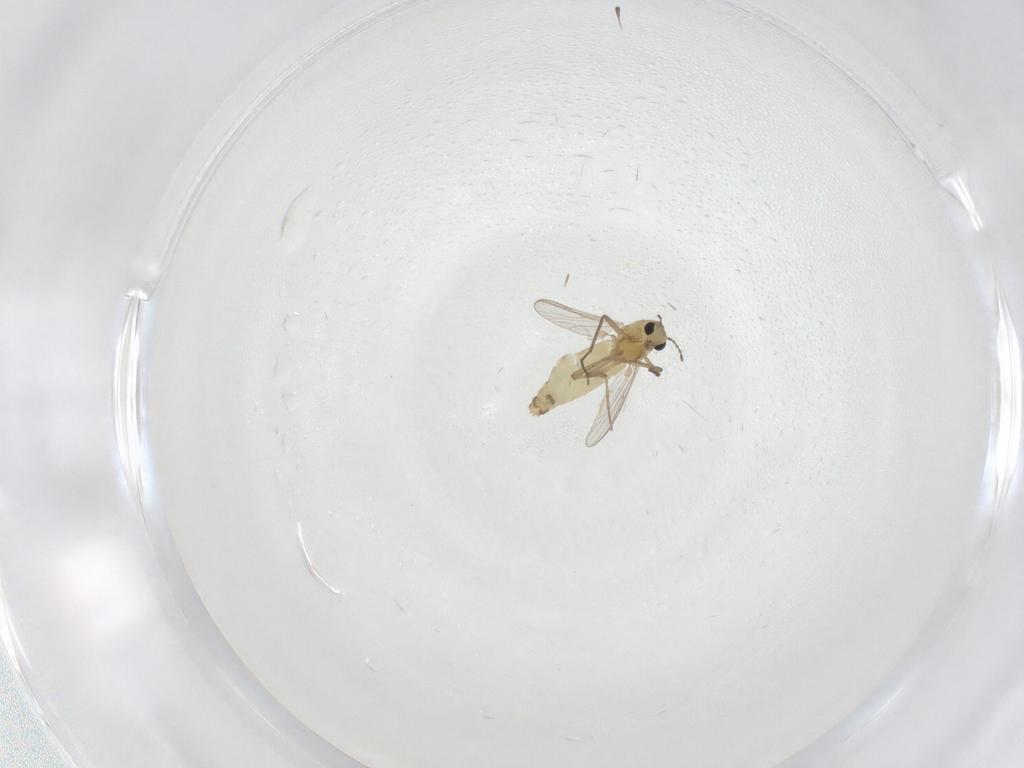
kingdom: Animalia
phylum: Arthropoda
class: Insecta
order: Diptera
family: Chironomidae
